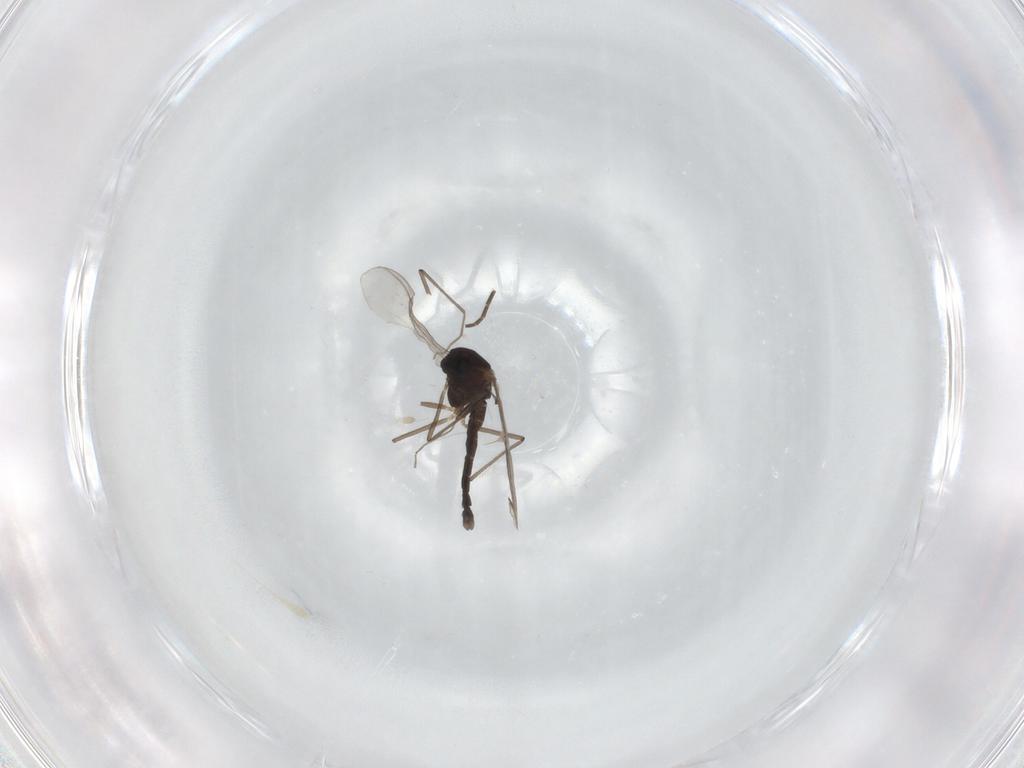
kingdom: Animalia
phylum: Arthropoda
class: Insecta
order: Diptera
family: Chironomidae
